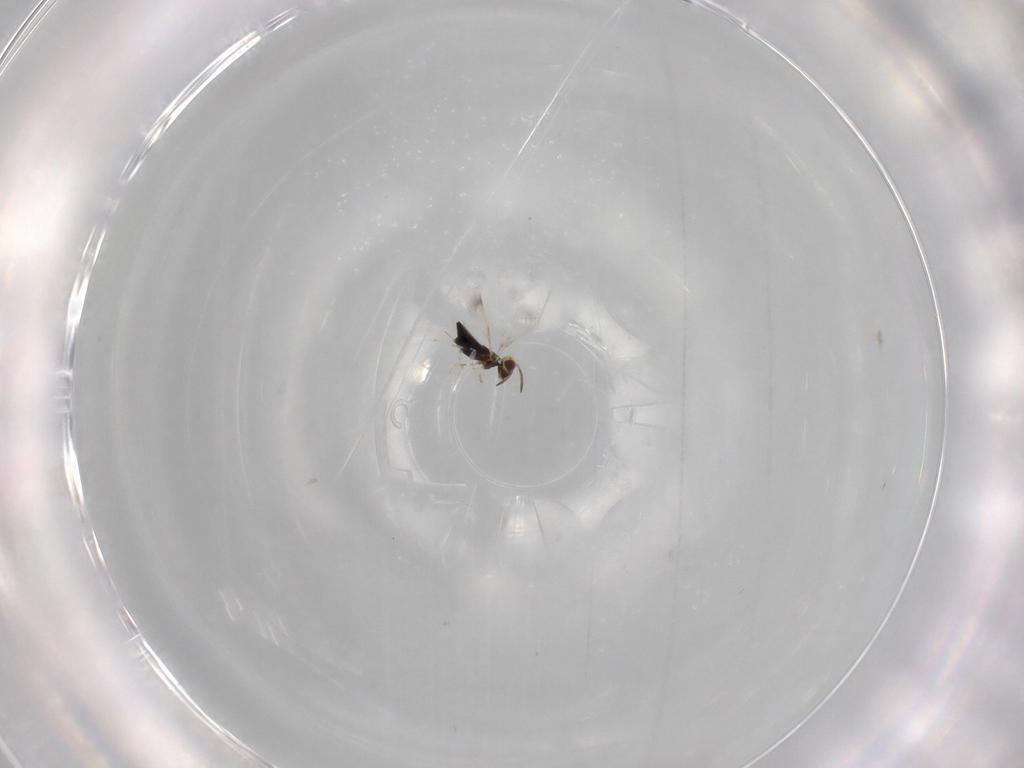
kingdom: Animalia
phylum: Arthropoda
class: Insecta
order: Hymenoptera
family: Signiphoridae
